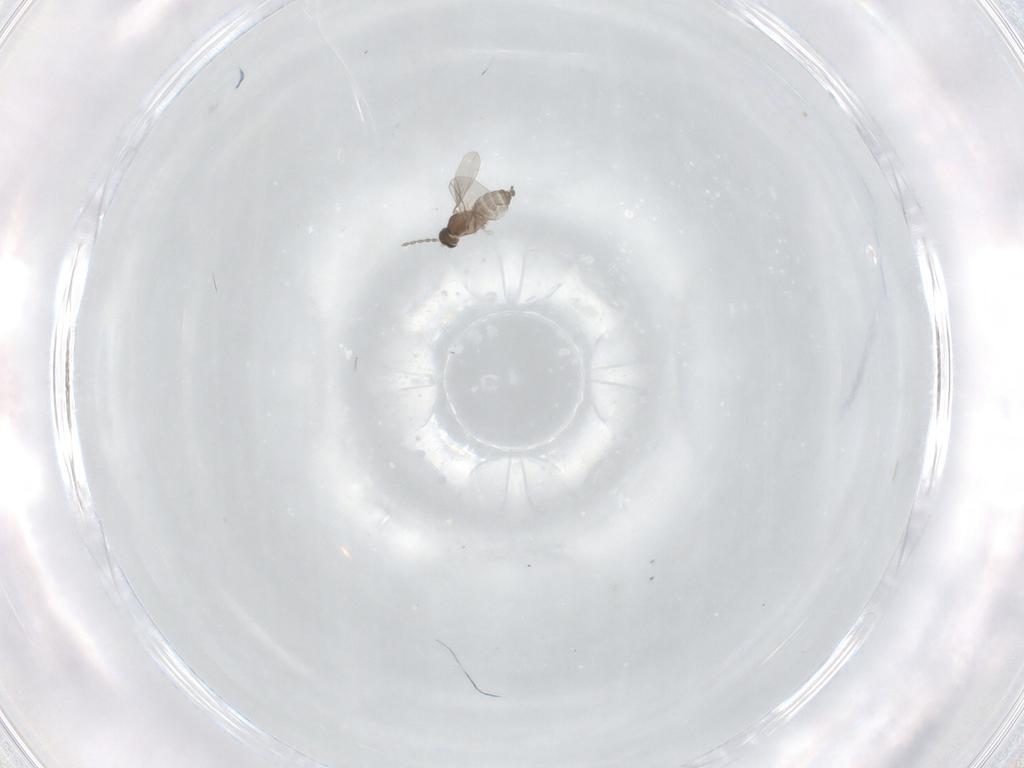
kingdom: Animalia
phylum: Arthropoda
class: Insecta
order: Diptera
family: Cecidomyiidae
